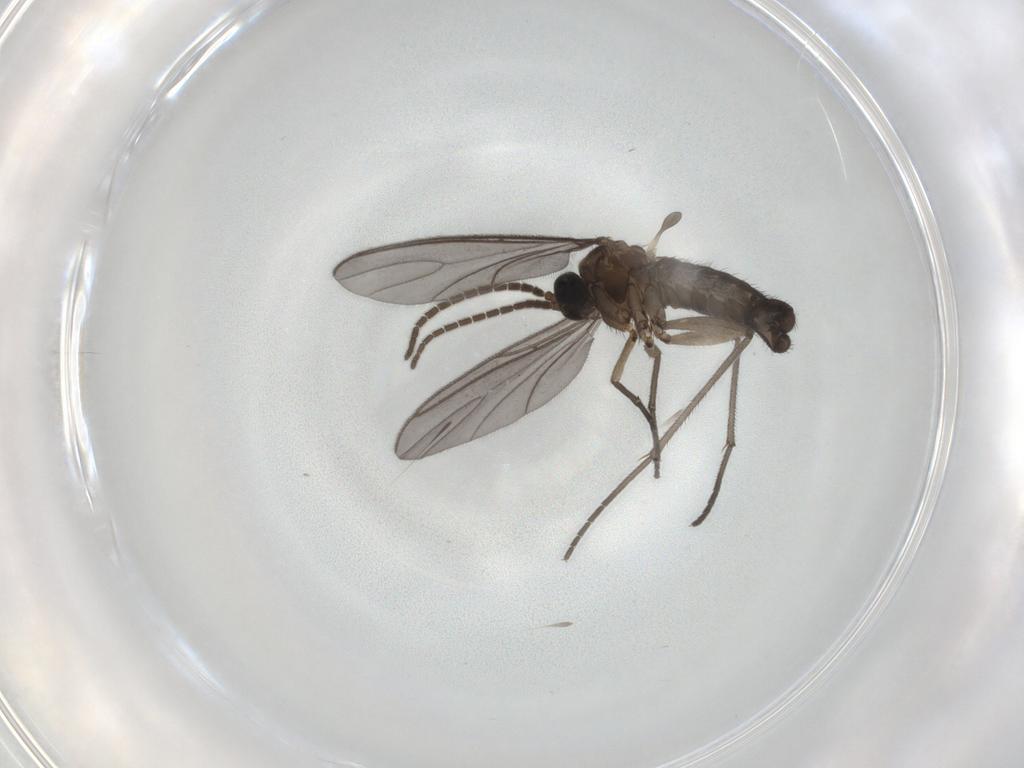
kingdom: Animalia
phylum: Arthropoda
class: Insecta
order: Diptera
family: Sciaridae
